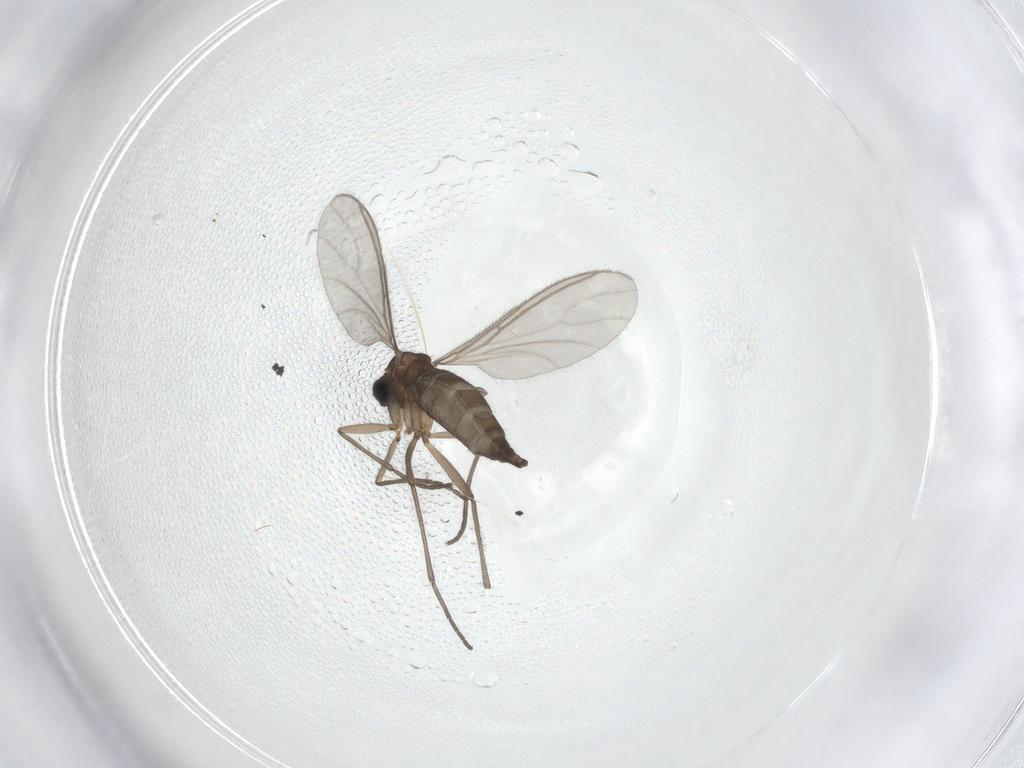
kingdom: Animalia
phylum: Arthropoda
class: Insecta
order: Diptera
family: Sciaridae
